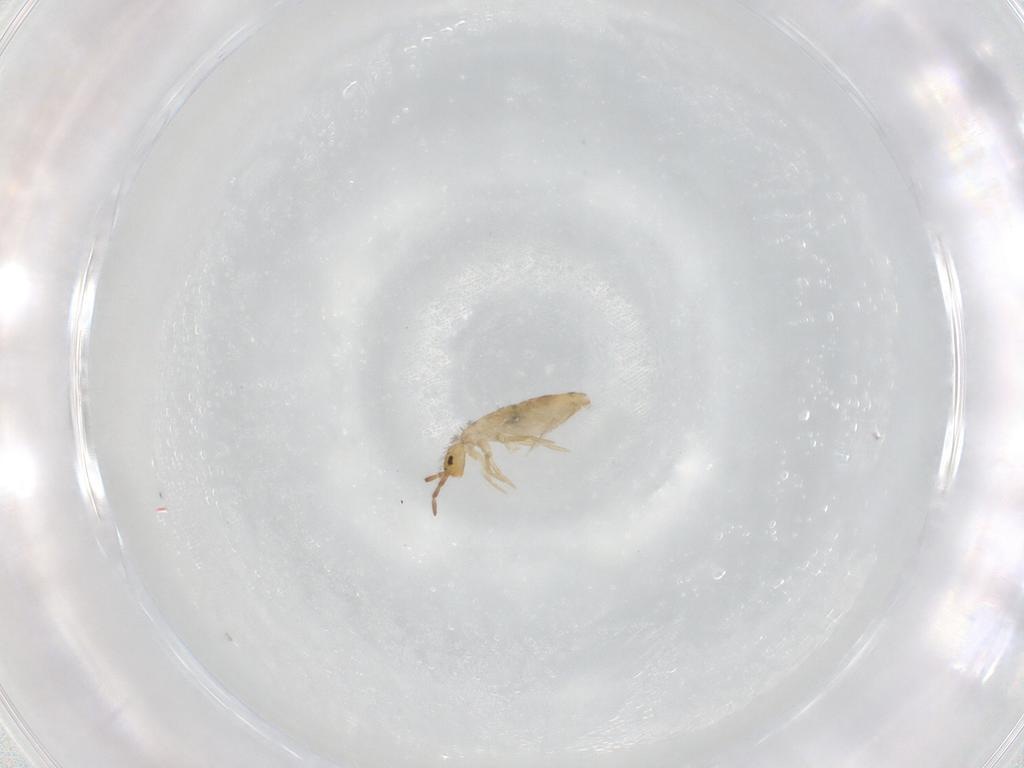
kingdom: Animalia
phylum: Arthropoda
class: Collembola
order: Entomobryomorpha
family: Entomobryidae
